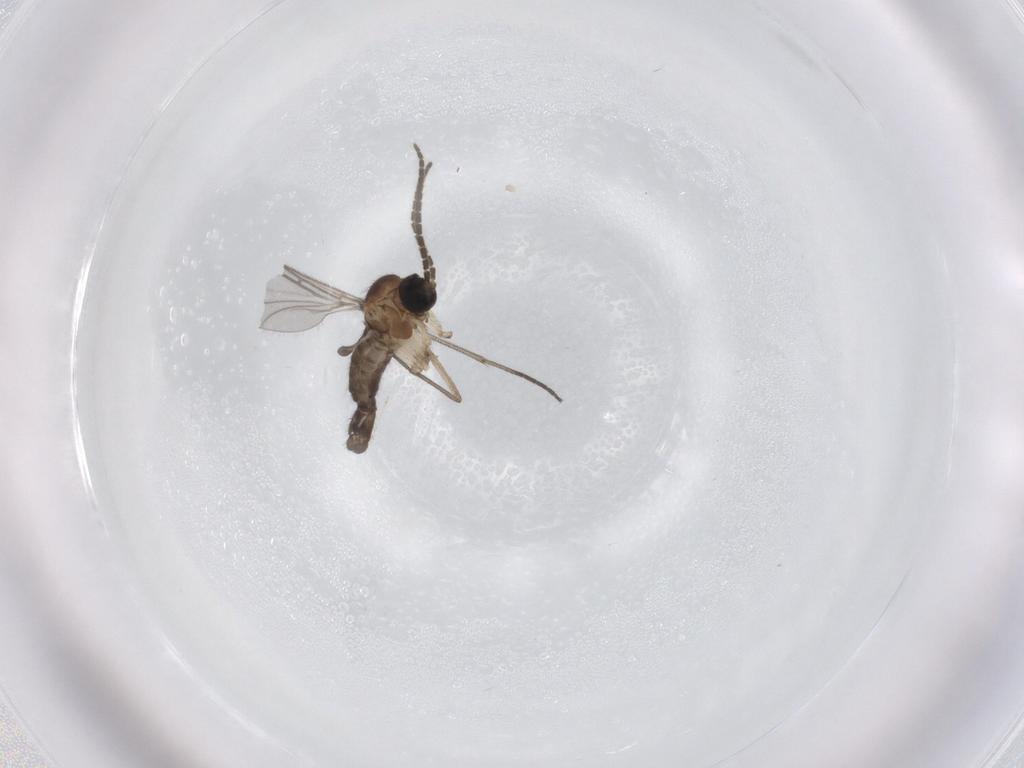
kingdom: Animalia
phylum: Arthropoda
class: Insecta
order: Diptera
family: Sciaridae
